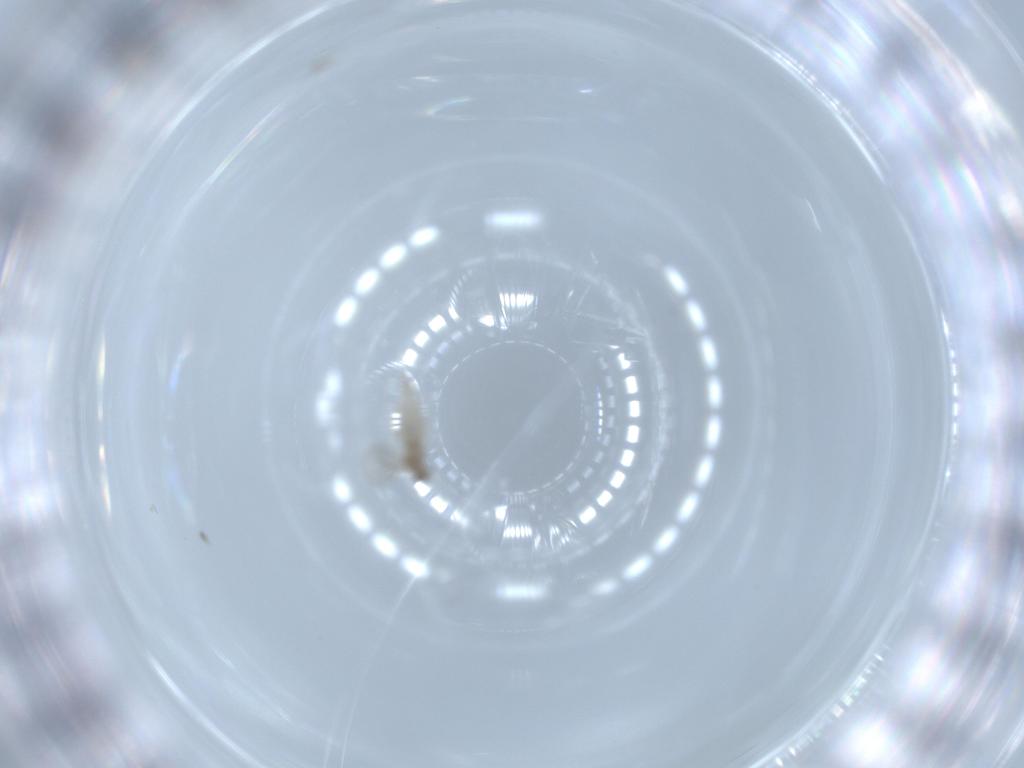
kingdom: Animalia
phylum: Arthropoda
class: Insecta
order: Diptera
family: Cecidomyiidae
